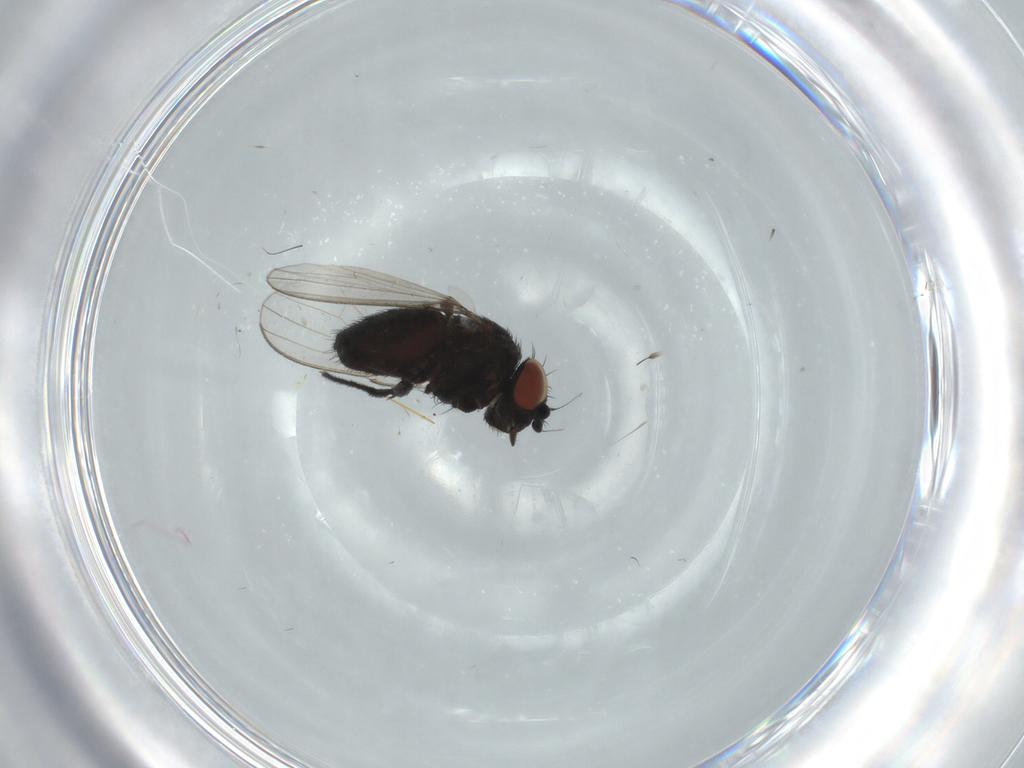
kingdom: Animalia
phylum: Arthropoda
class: Insecta
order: Diptera
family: Milichiidae
